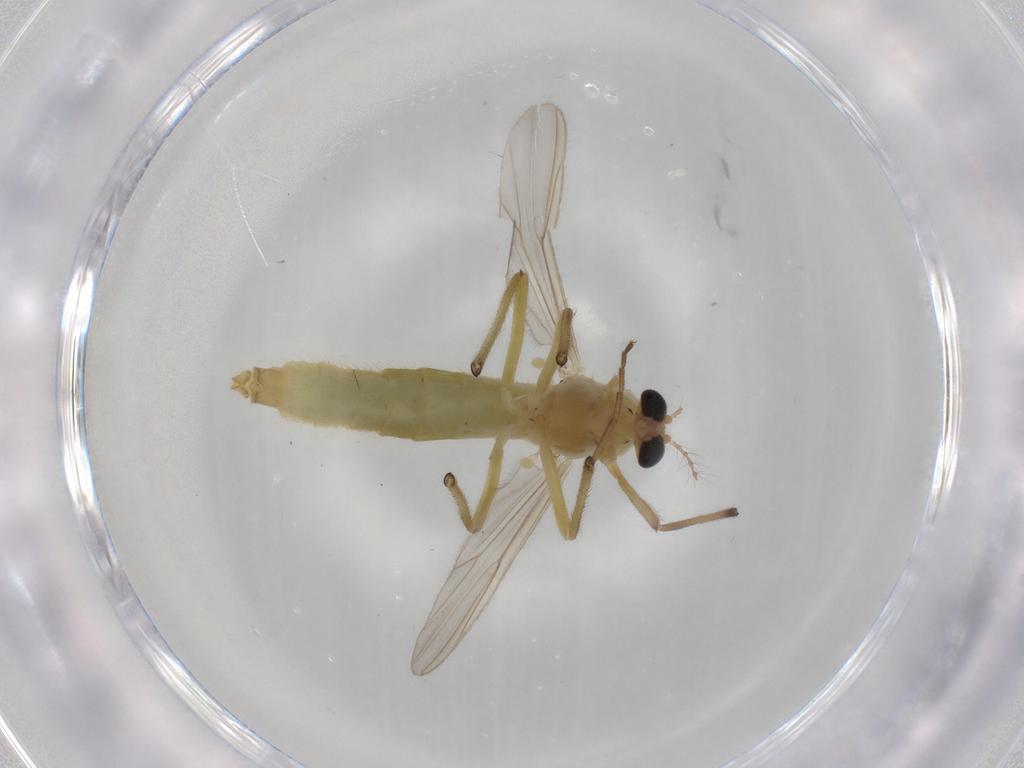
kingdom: Animalia
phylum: Arthropoda
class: Insecta
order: Diptera
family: Chironomidae
